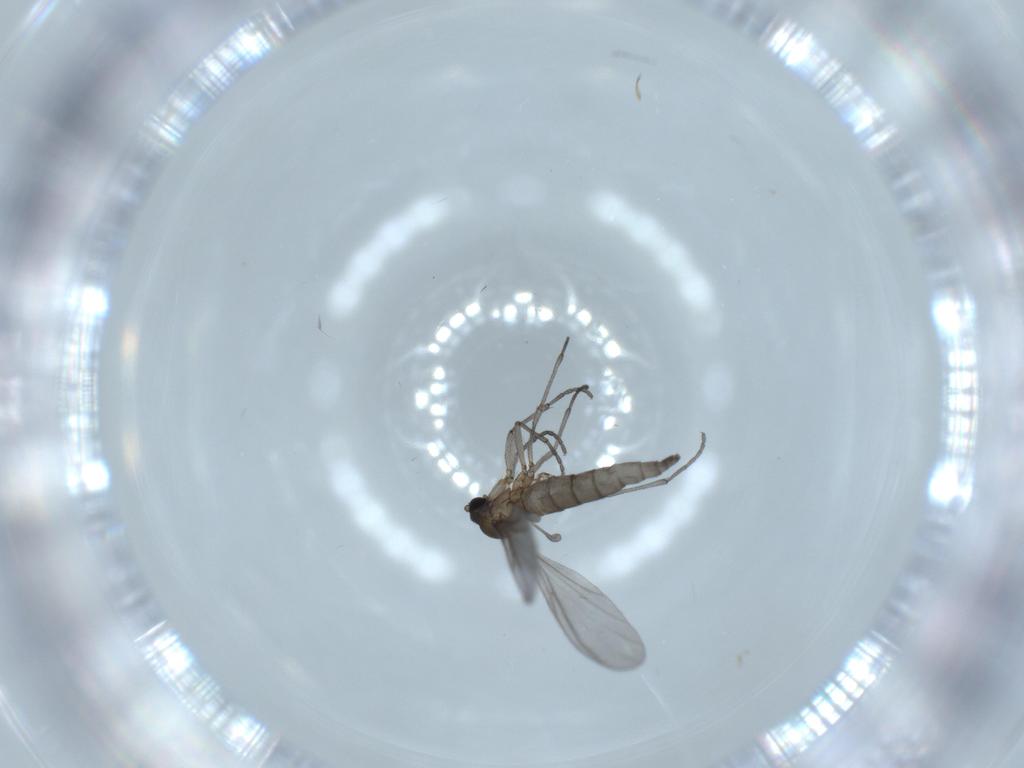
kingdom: Animalia
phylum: Arthropoda
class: Insecta
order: Diptera
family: Sciaridae
